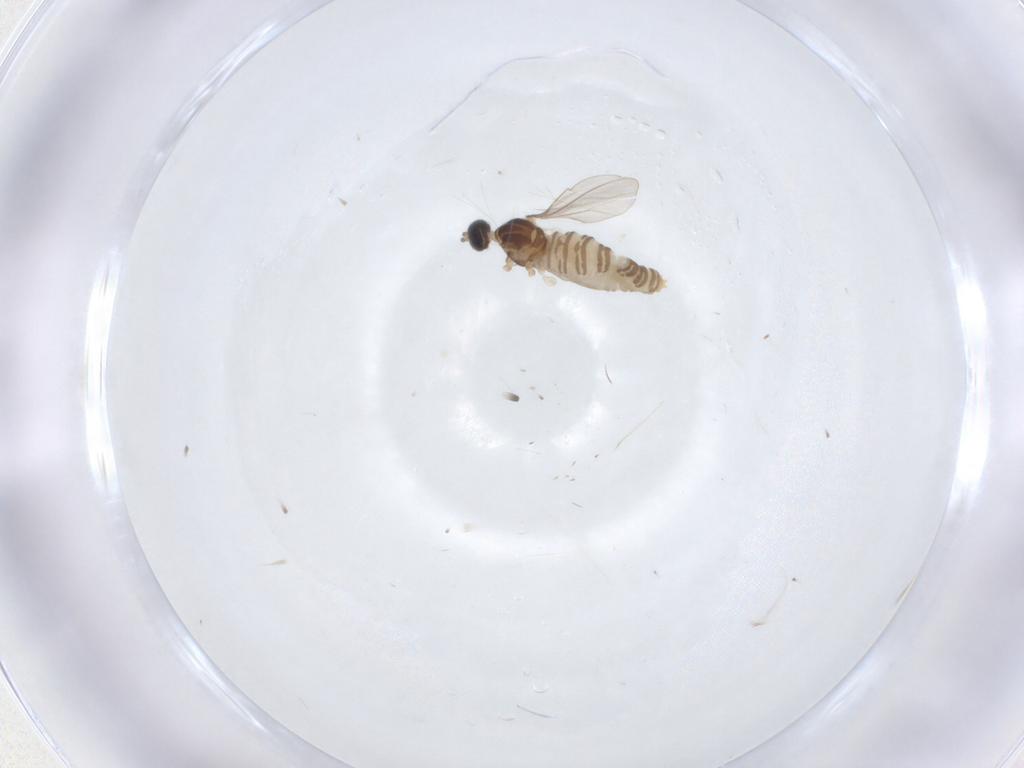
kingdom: Animalia
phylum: Arthropoda
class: Insecta
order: Diptera
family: Cecidomyiidae
